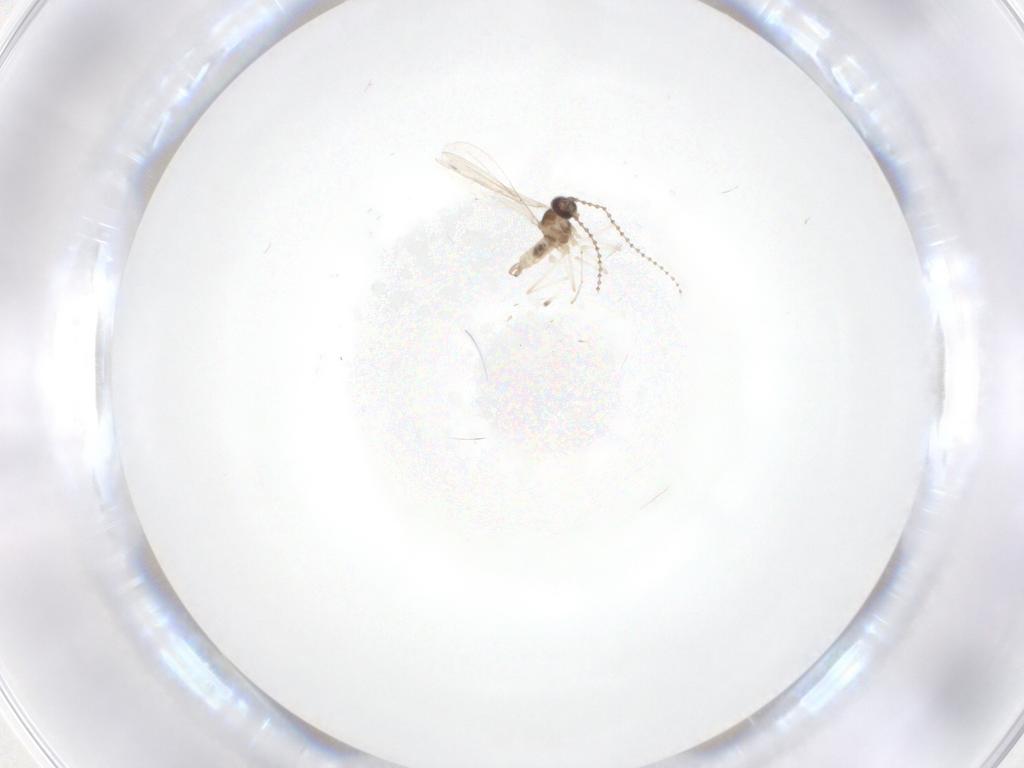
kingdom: Animalia
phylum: Arthropoda
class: Insecta
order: Diptera
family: Cecidomyiidae
